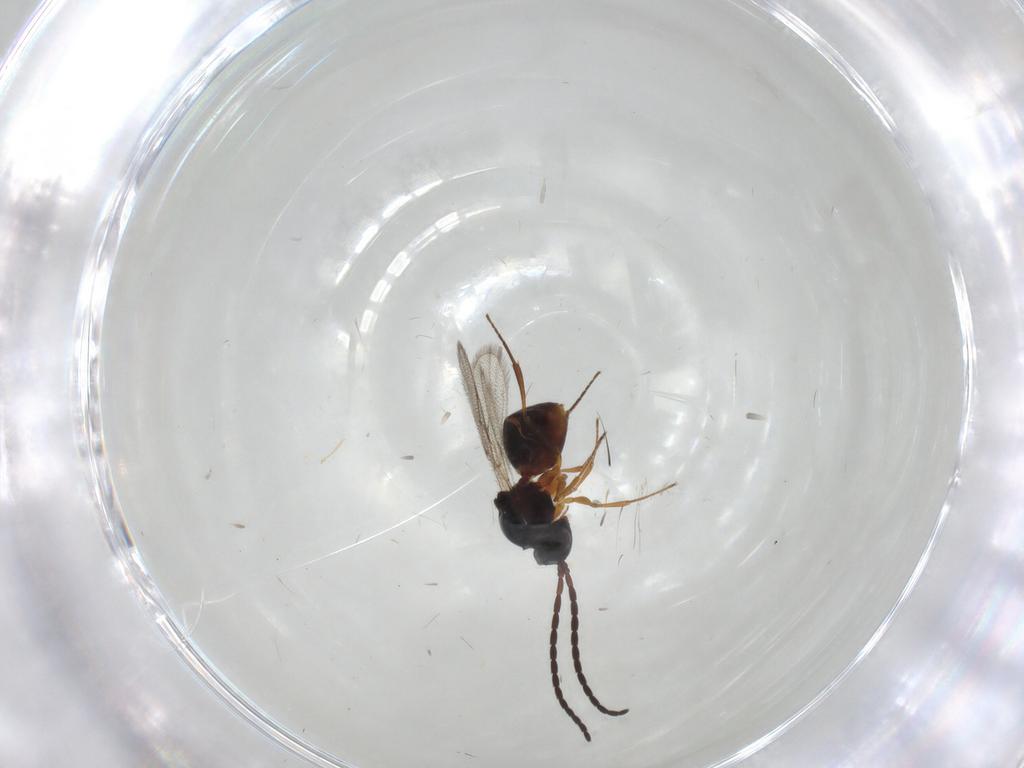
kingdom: Animalia
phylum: Arthropoda
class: Insecta
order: Hymenoptera
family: Figitidae
